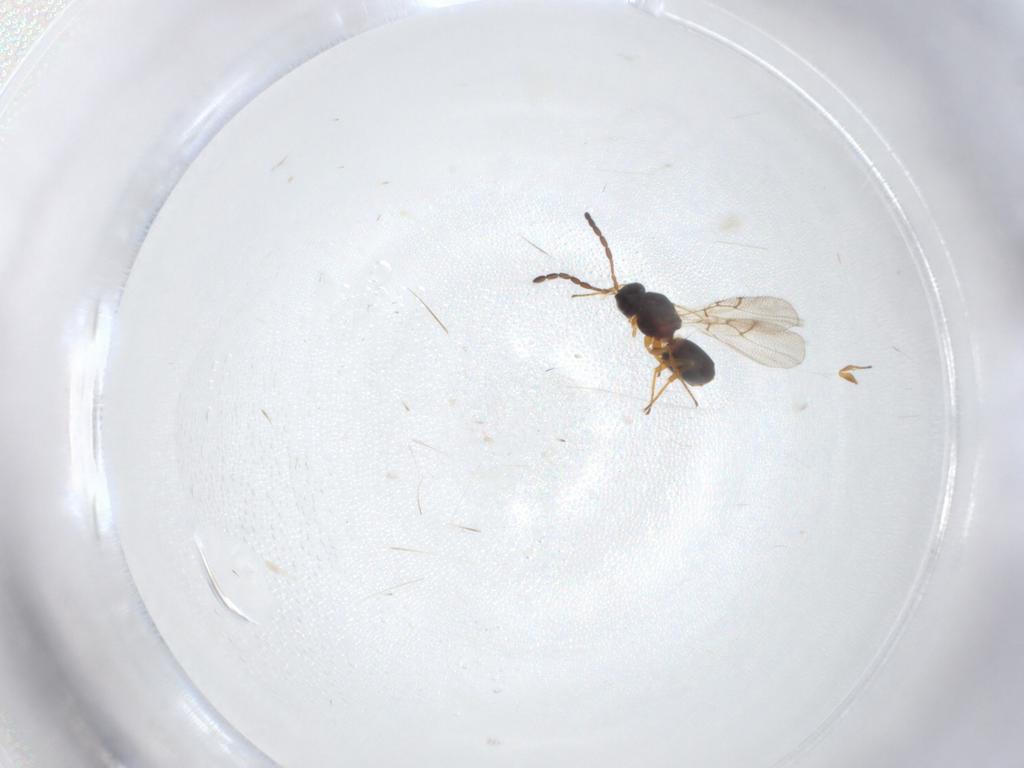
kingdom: Animalia
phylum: Arthropoda
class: Insecta
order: Hymenoptera
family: Figitidae
